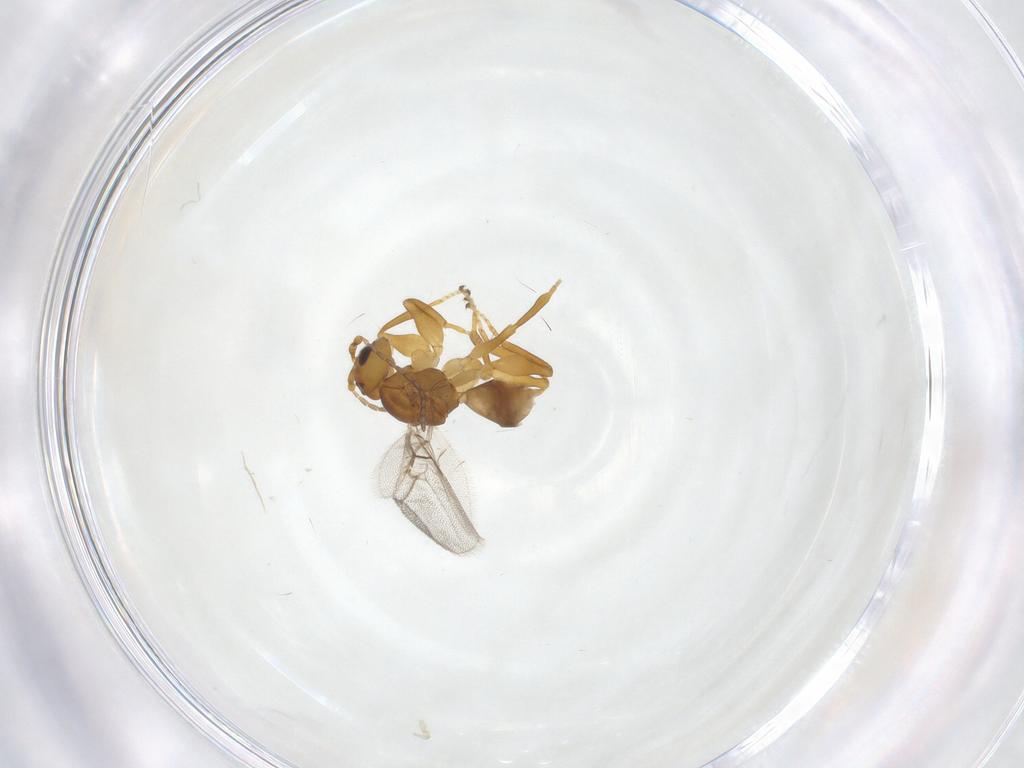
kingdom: Animalia
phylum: Arthropoda
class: Insecta
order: Hymenoptera
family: Cynipidae
